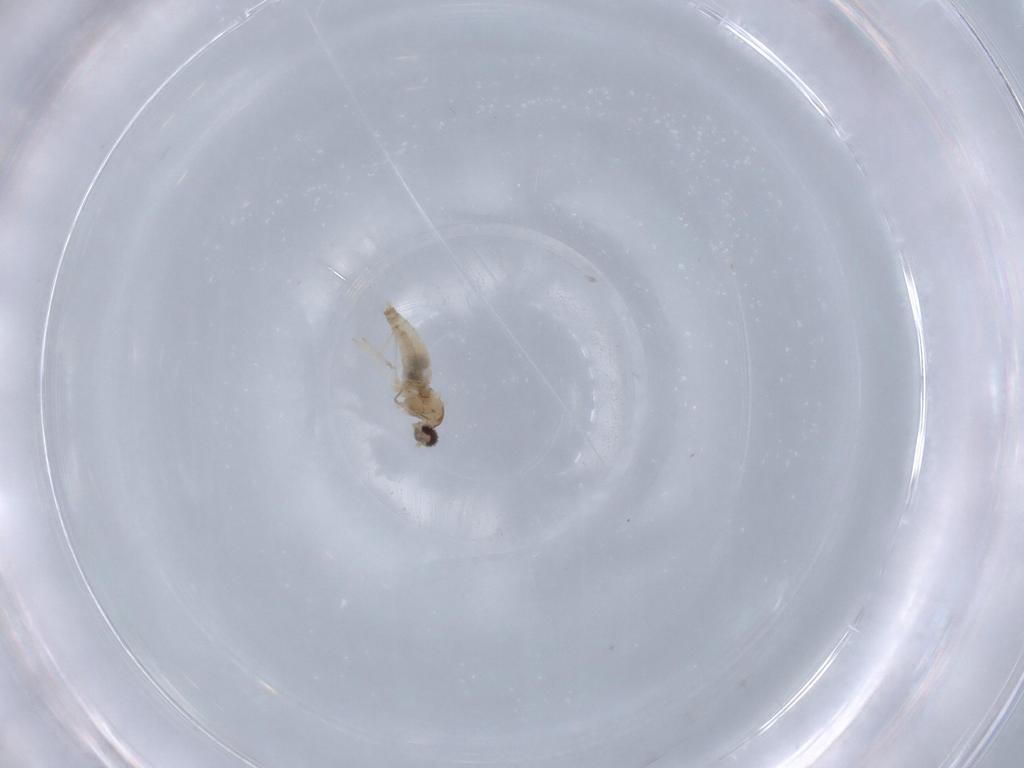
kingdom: Animalia
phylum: Arthropoda
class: Insecta
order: Diptera
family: Cecidomyiidae
